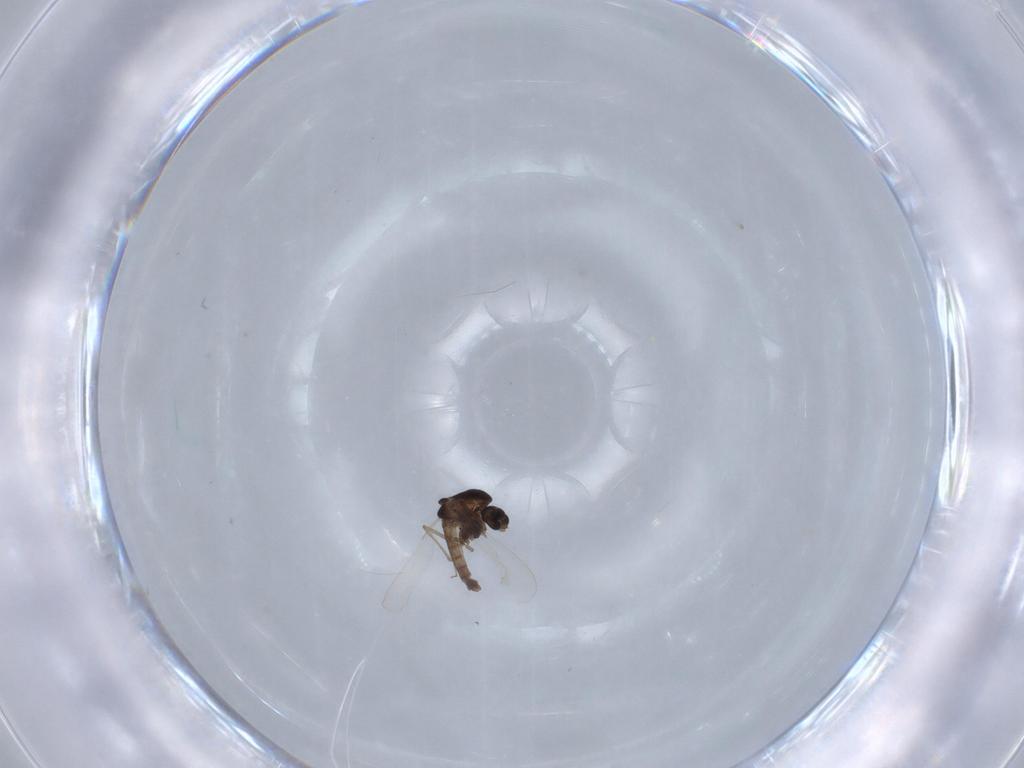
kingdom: Animalia
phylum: Arthropoda
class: Insecta
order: Diptera
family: Chironomidae
